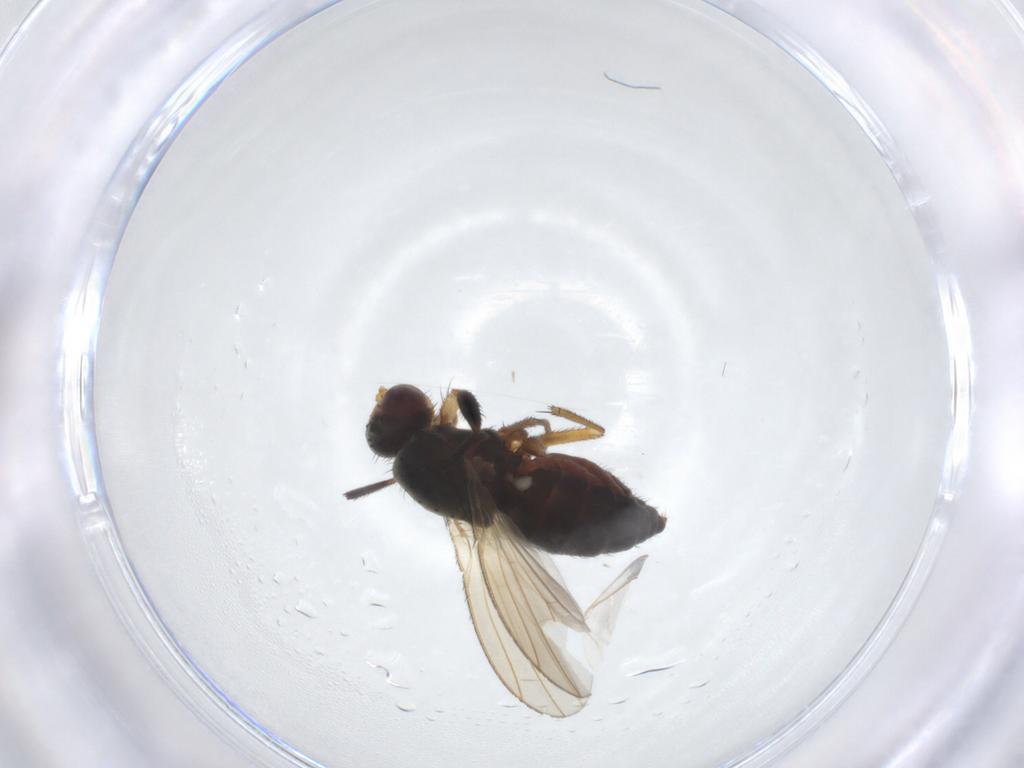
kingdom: Animalia
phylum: Arthropoda
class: Insecta
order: Diptera
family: Heleomyzidae
